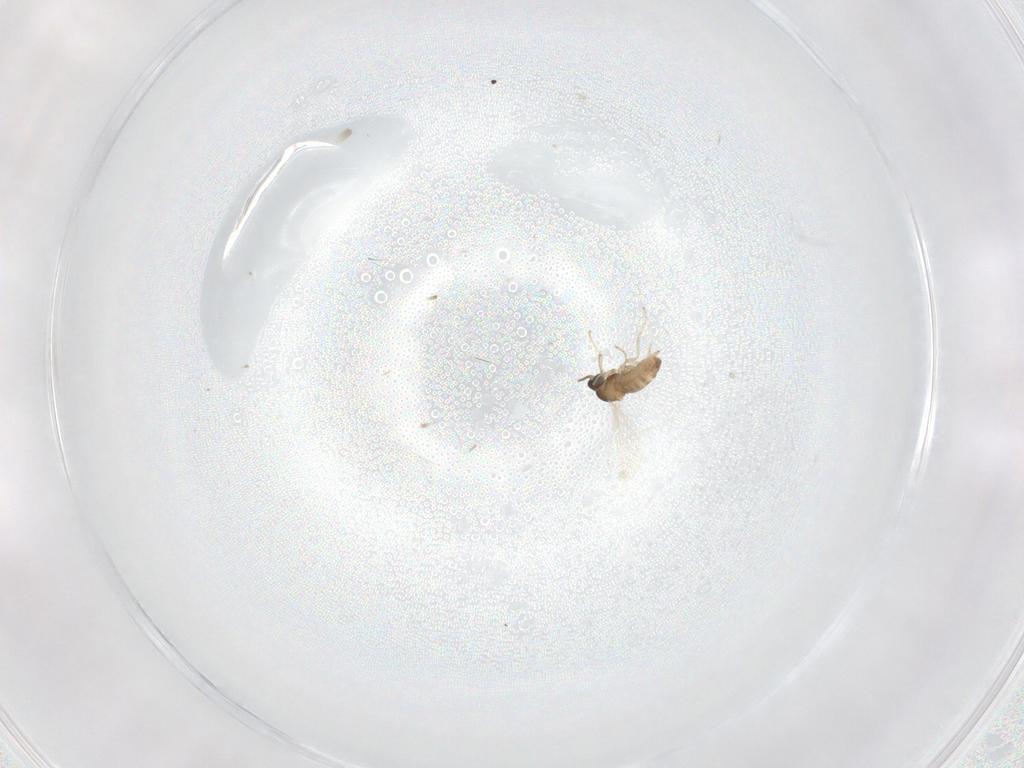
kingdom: Animalia
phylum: Arthropoda
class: Insecta
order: Diptera
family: Cecidomyiidae
